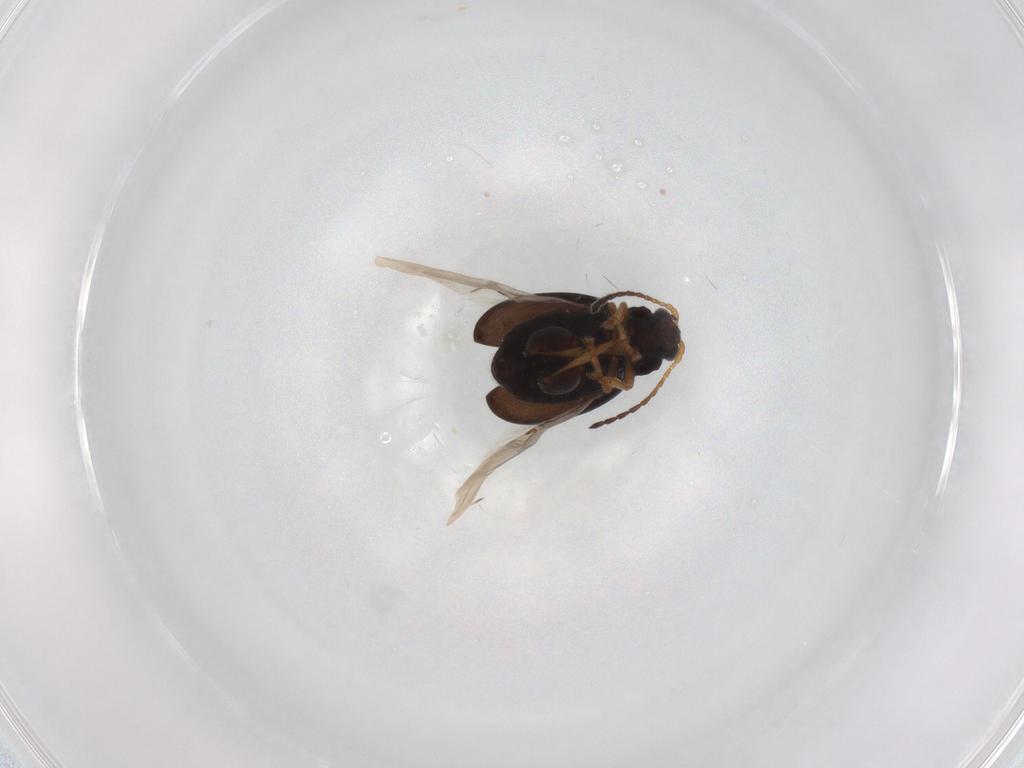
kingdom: Animalia
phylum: Arthropoda
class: Insecta
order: Coleoptera
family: Chrysomelidae
